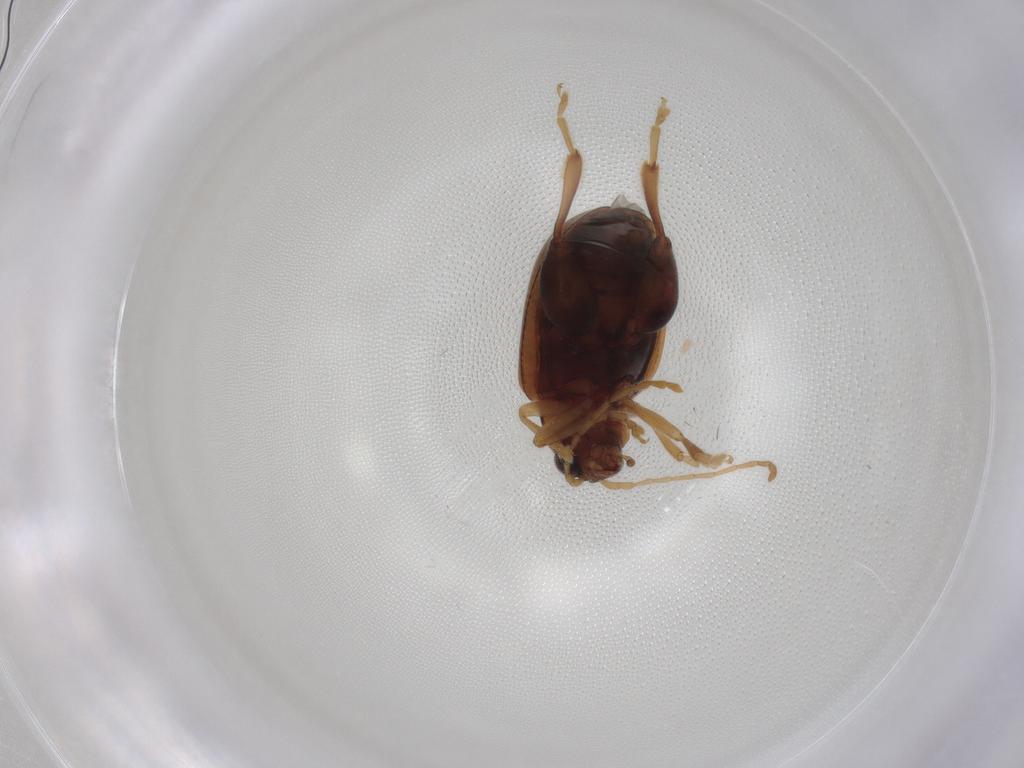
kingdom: Animalia
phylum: Arthropoda
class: Insecta
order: Coleoptera
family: Chrysomelidae
